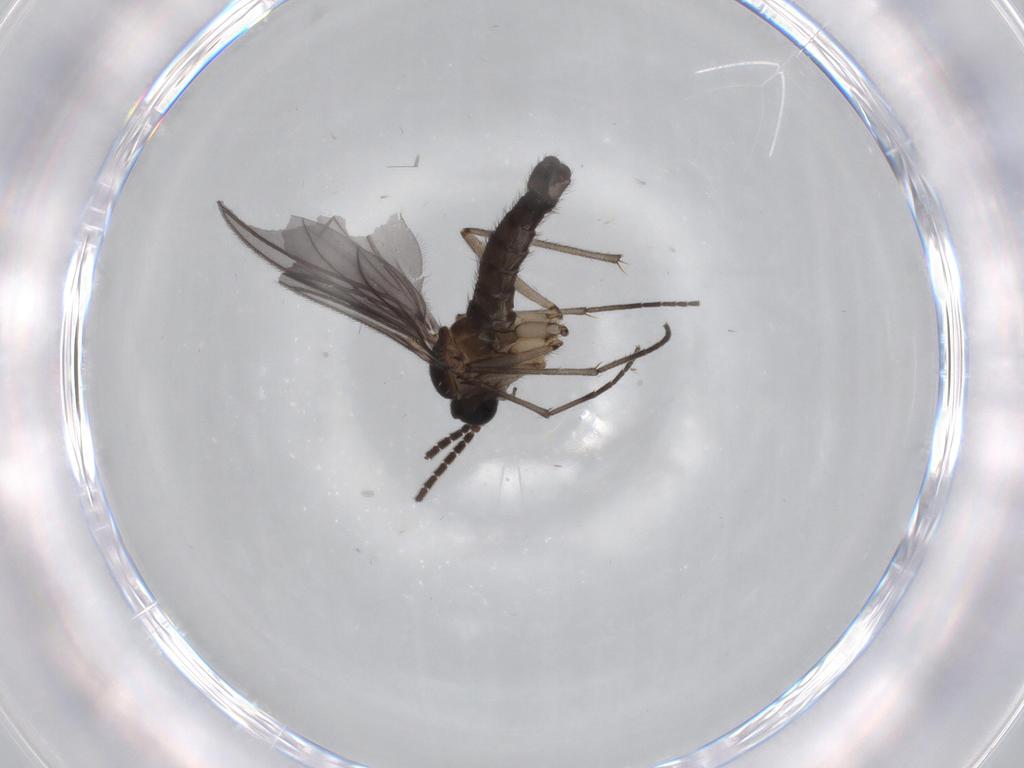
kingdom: Animalia
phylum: Arthropoda
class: Insecta
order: Diptera
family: Sciaridae
